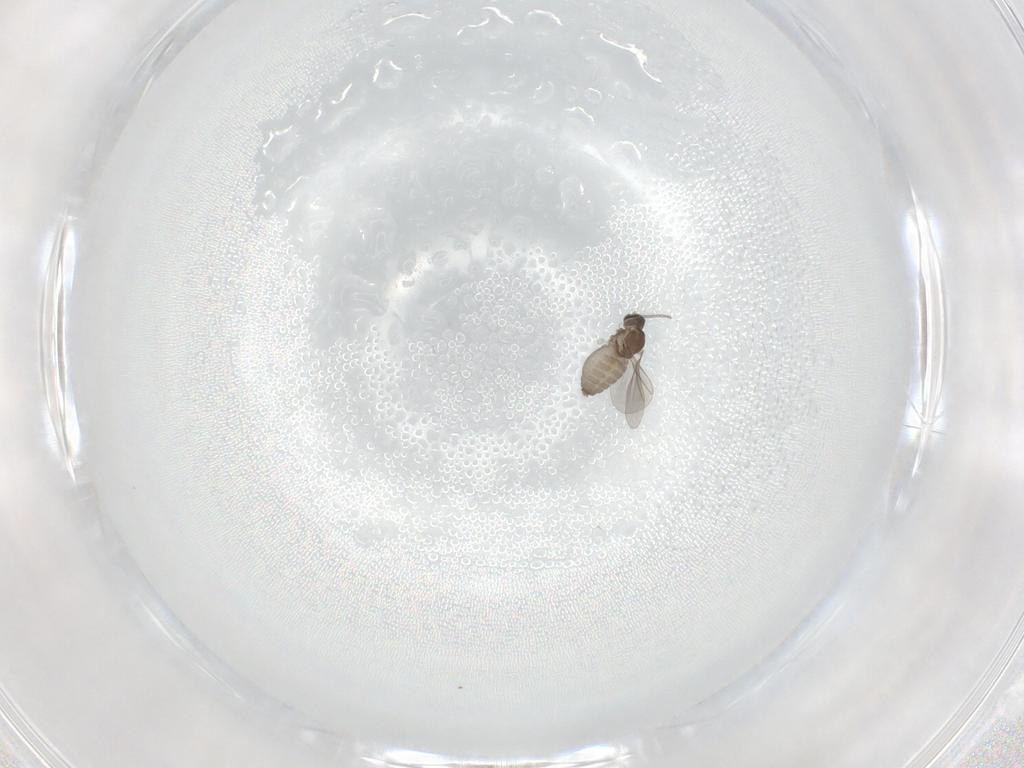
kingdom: Animalia
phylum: Arthropoda
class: Insecta
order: Diptera
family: Cecidomyiidae
